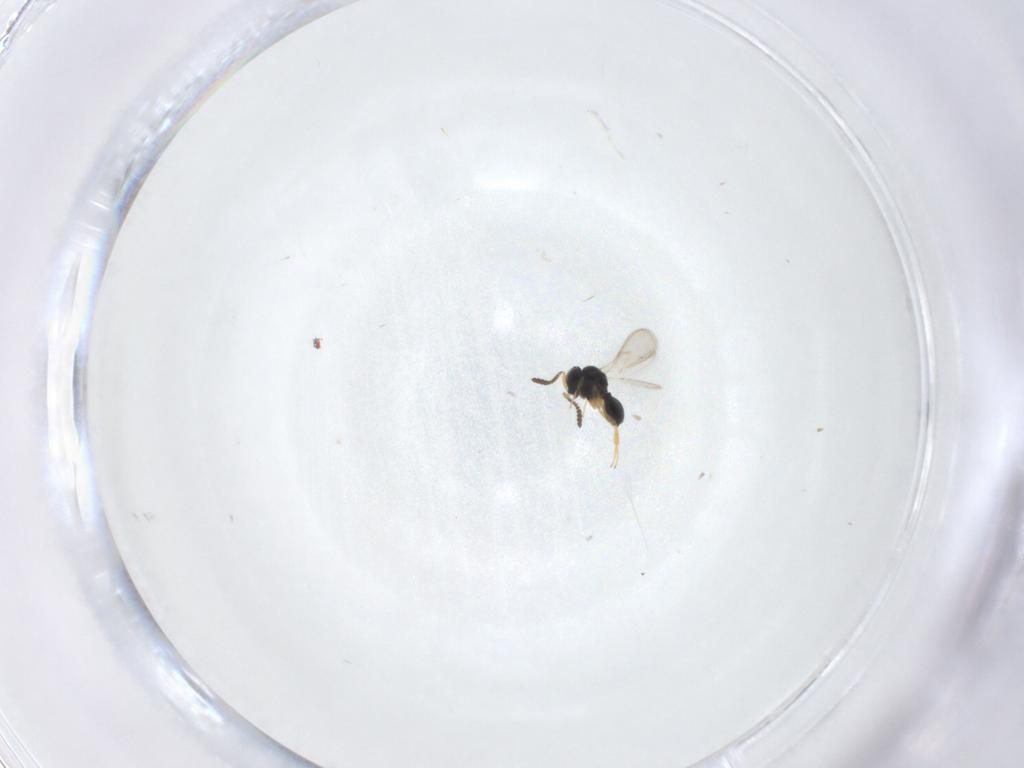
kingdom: Animalia
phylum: Arthropoda
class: Insecta
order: Hymenoptera
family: Scelionidae
